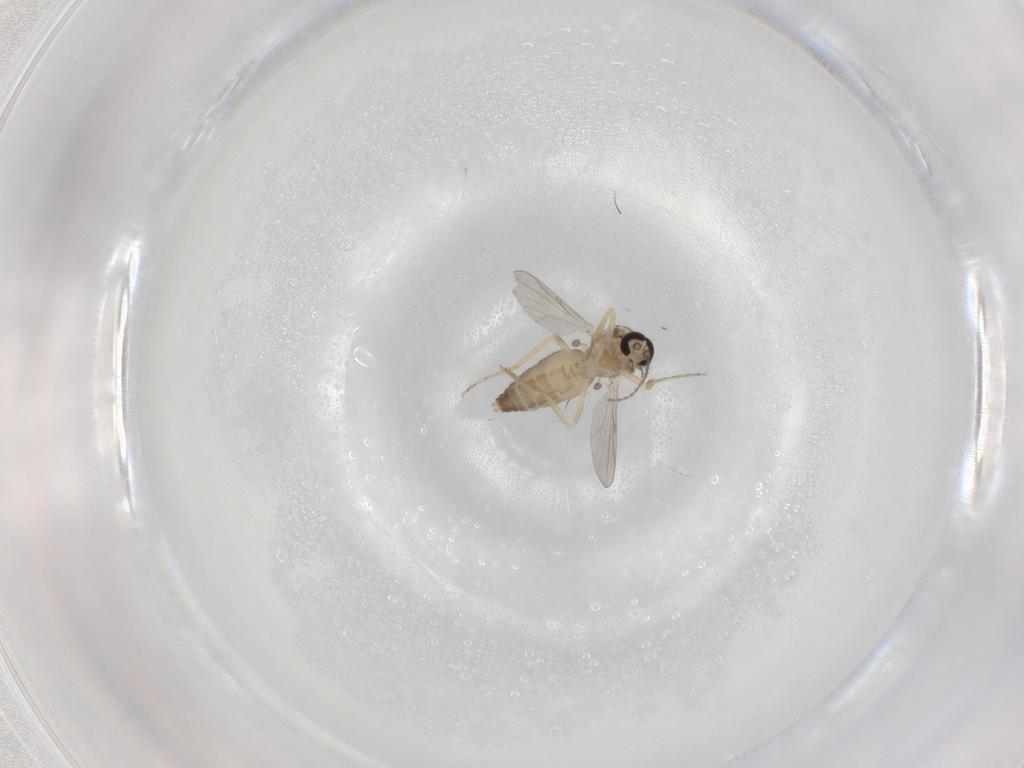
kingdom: Animalia
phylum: Arthropoda
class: Insecta
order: Diptera
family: Ceratopogonidae
